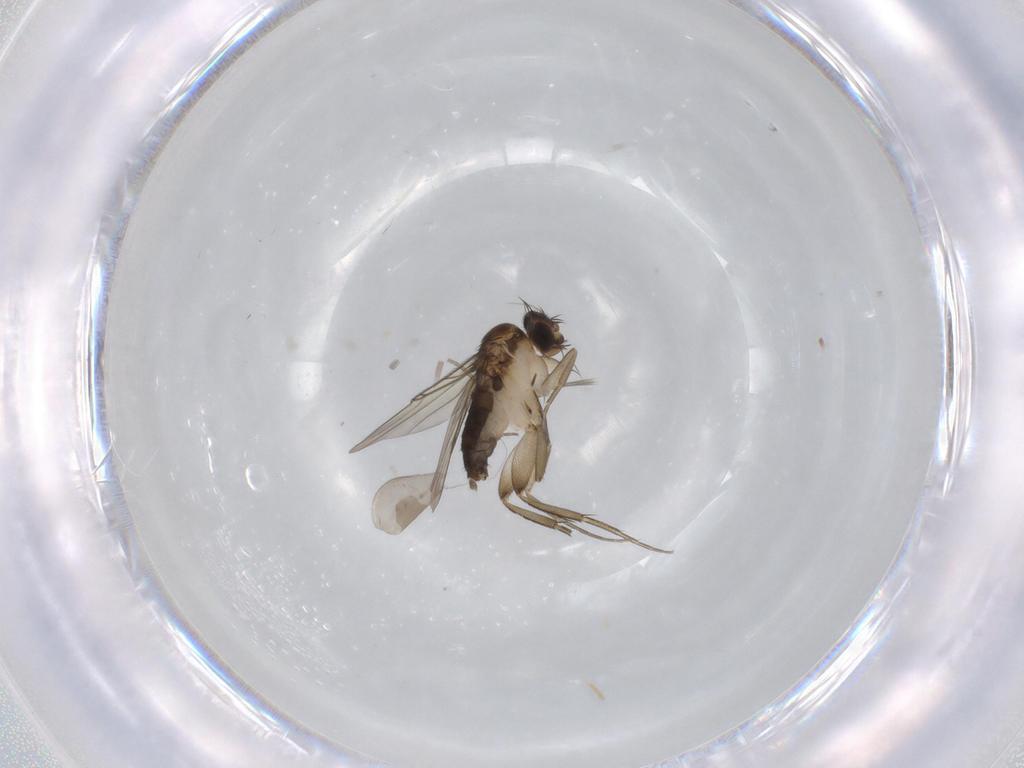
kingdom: Animalia
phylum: Arthropoda
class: Insecta
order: Diptera
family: Phoridae
